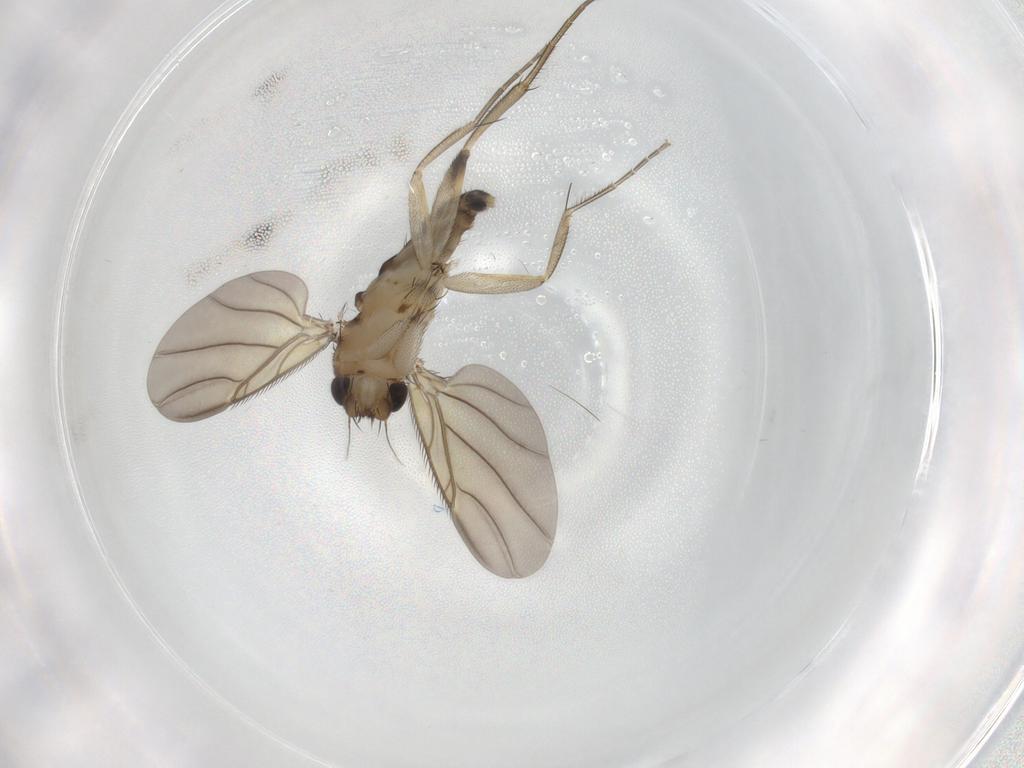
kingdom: Animalia
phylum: Arthropoda
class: Insecta
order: Diptera
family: Phoridae
